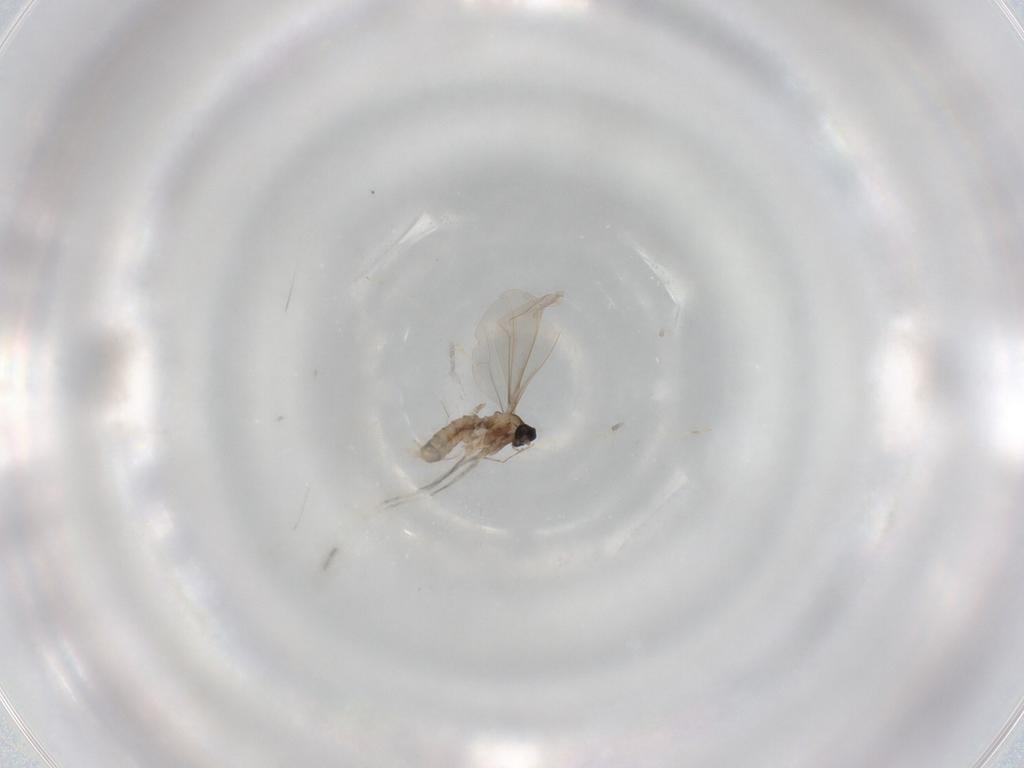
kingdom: Animalia
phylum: Arthropoda
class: Insecta
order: Diptera
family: Cecidomyiidae
